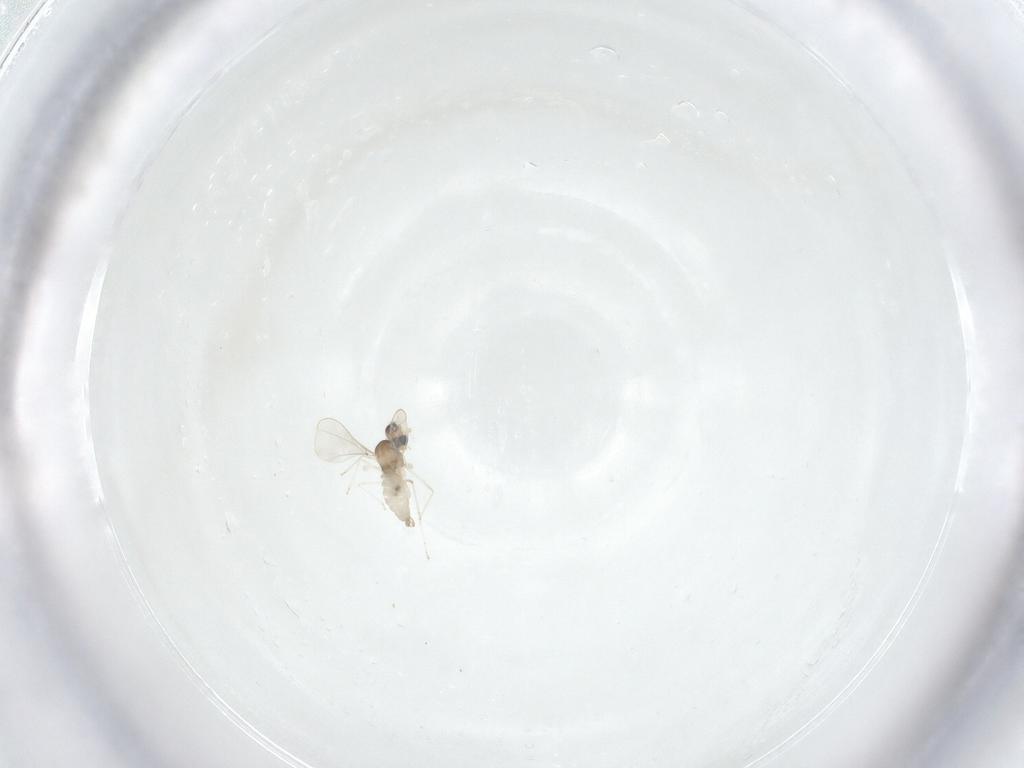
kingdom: Animalia
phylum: Arthropoda
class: Insecta
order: Diptera
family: Cecidomyiidae
